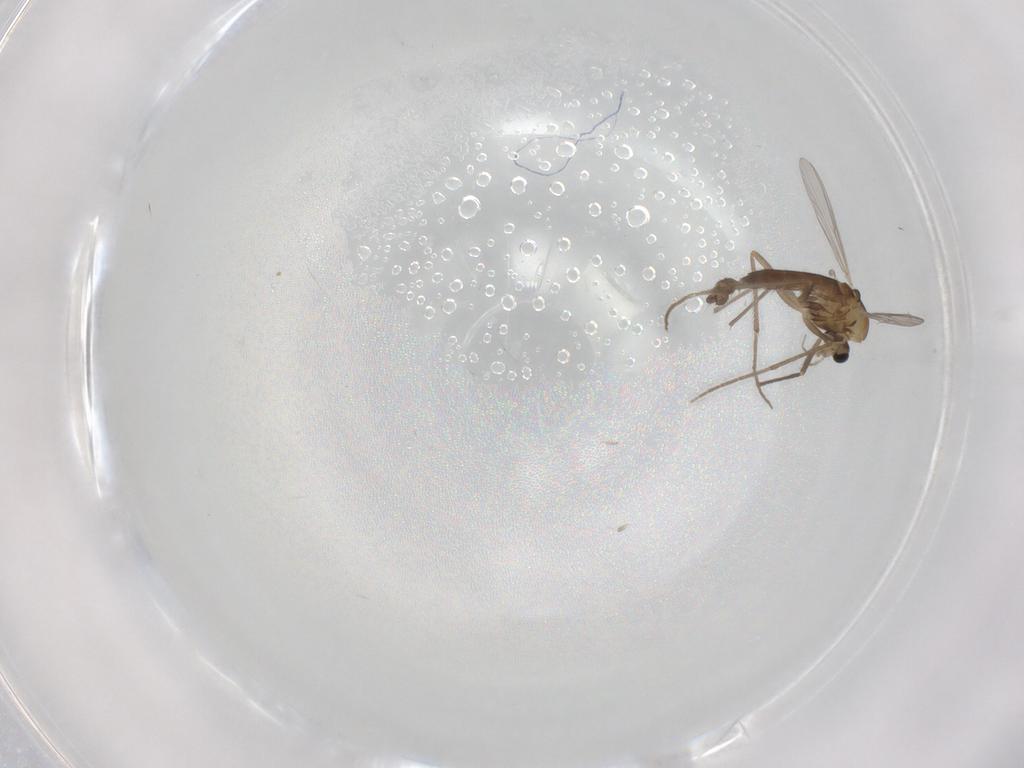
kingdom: Animalia
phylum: Arthropoda
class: Insecta
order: Diptera
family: Chironomidae
